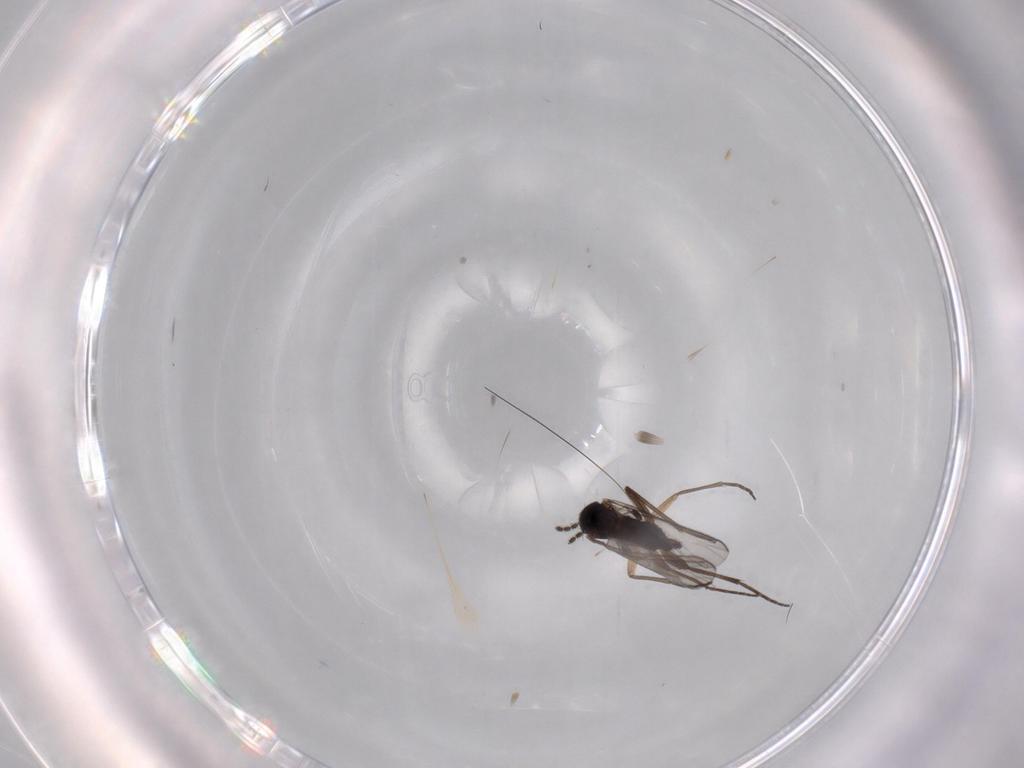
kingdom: Animalia
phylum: Arthropoda
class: Insecta
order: Diptera
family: Sciaridae
